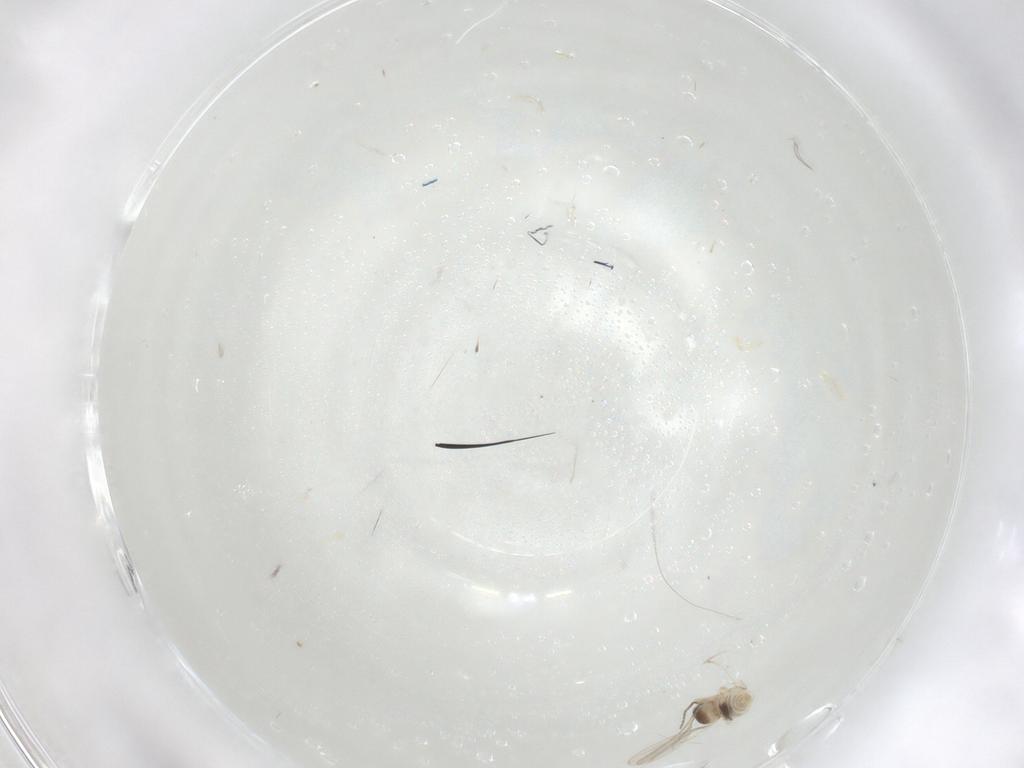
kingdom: Animalia
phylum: Arthropoda
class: Insecta
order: Diptera
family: Cecidomyiidae
